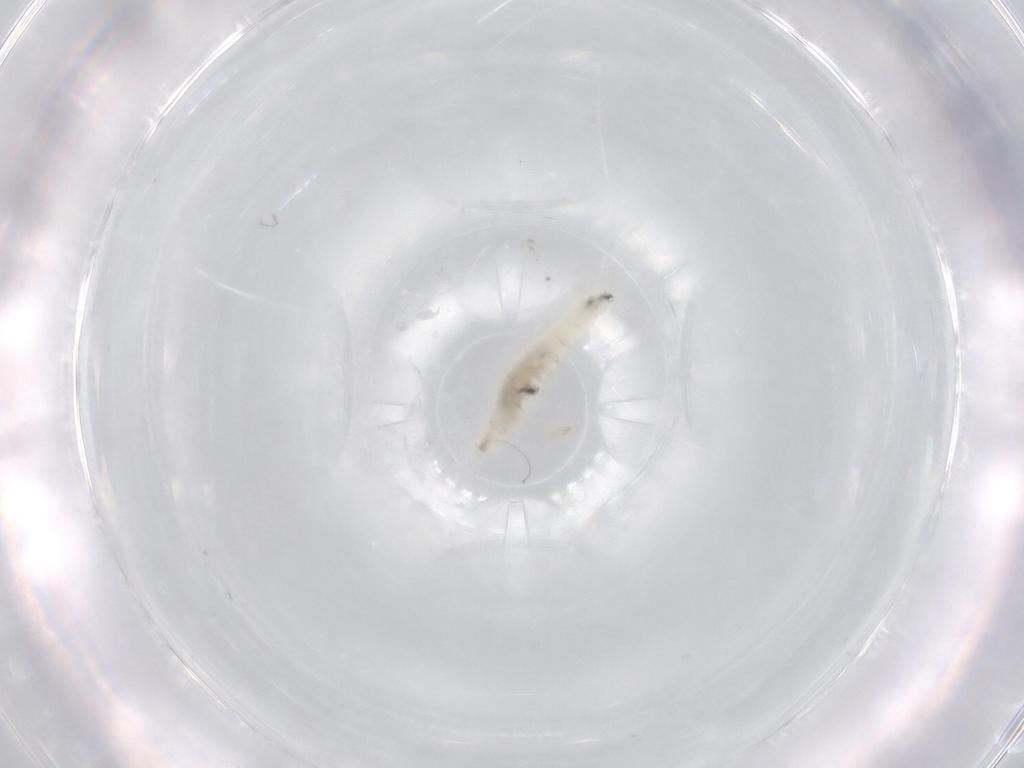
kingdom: Animalia
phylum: Arthropoda
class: Insecta
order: Diptera
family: Drosophilidae
